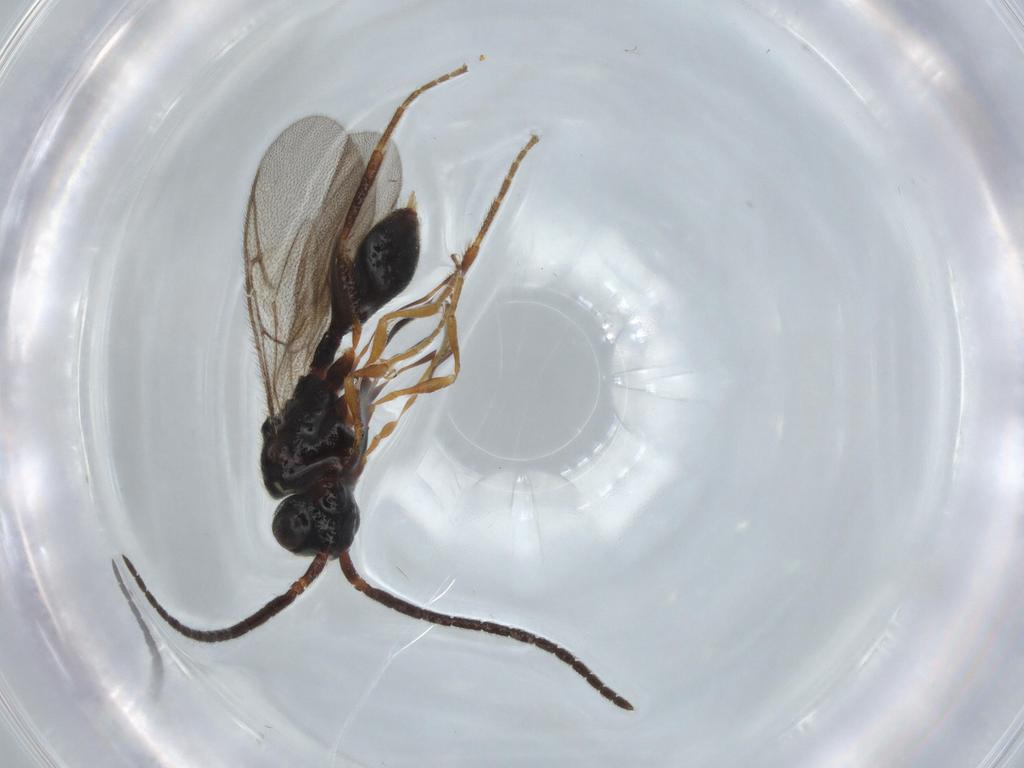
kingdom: Animalia
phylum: Arthropoda
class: Insecta
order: Hymenoptera
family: Diapriidae
